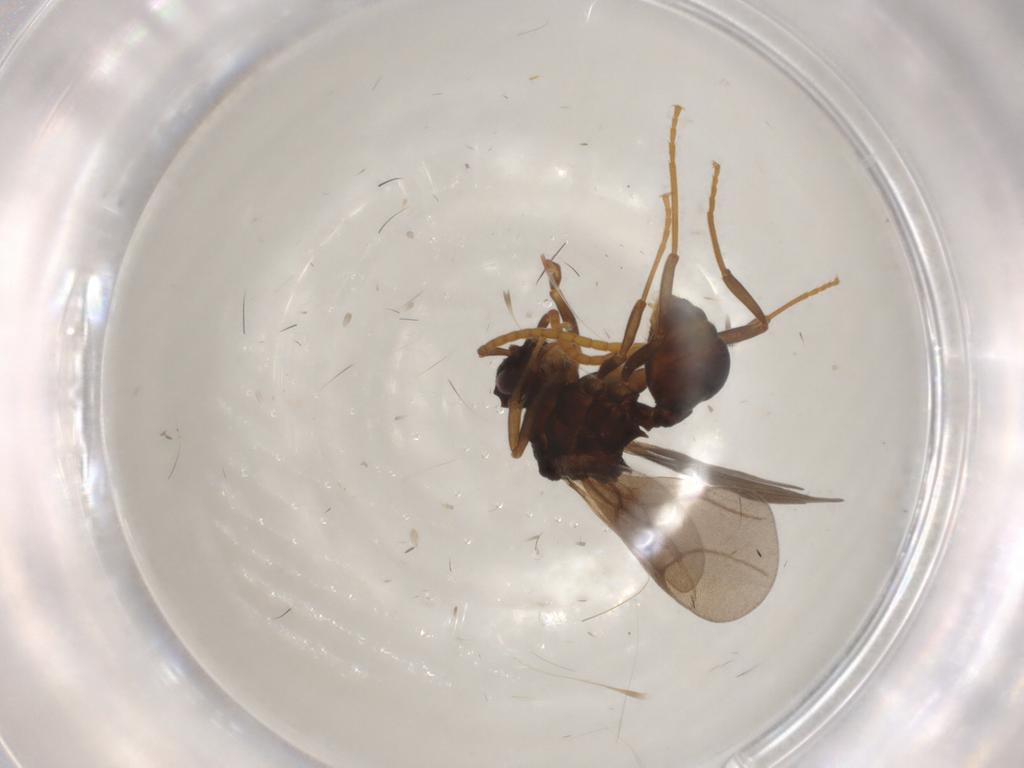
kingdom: Animalia
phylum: Arthropoda
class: Insecta
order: Hymenoptera
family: Formicidae
